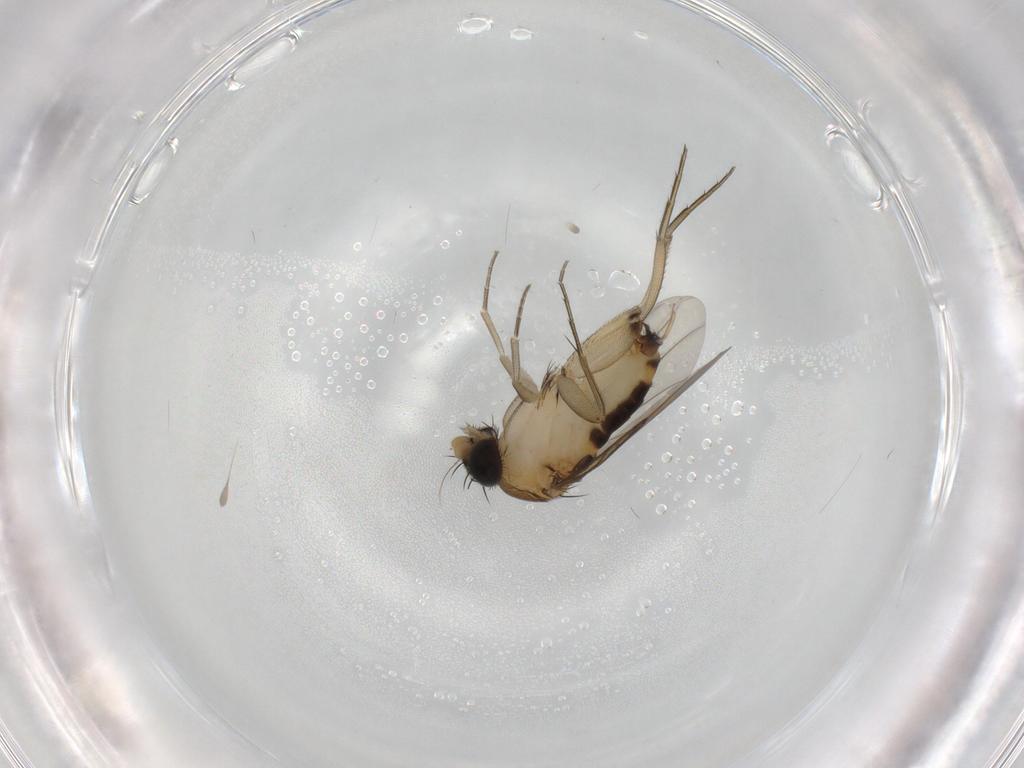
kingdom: Animalia
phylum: Arthropoda
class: Insecta
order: Diptera
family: Phoridae
